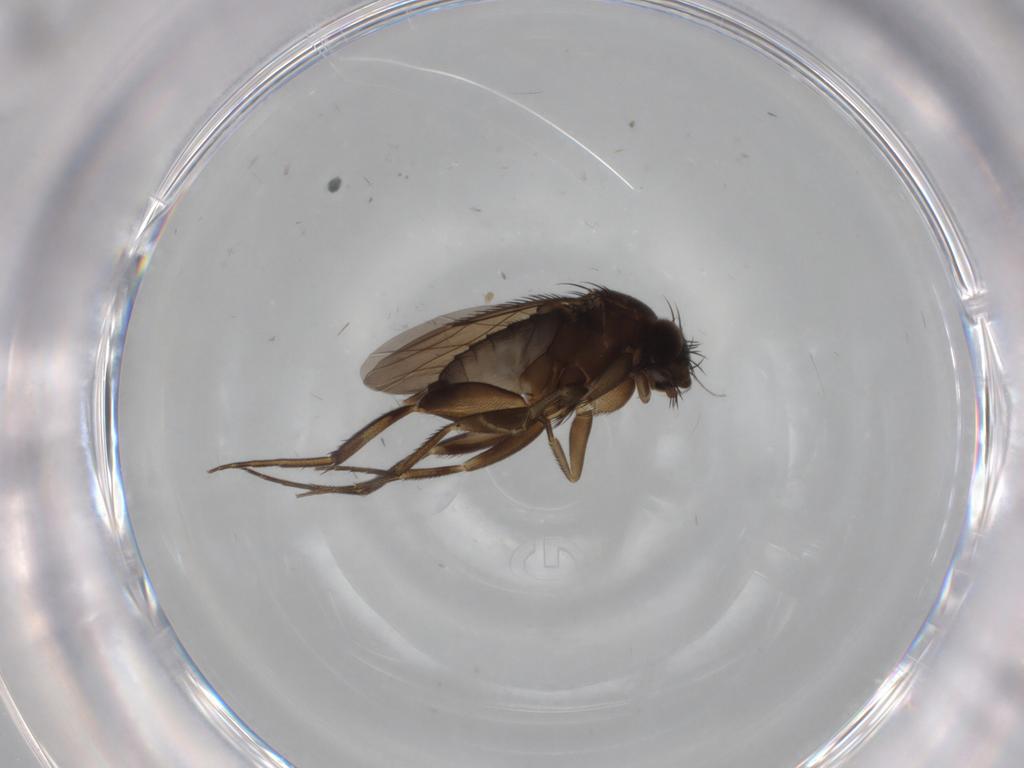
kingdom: Animalia
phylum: Arthropoda
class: Insecta
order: Diptera
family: Phoridae
